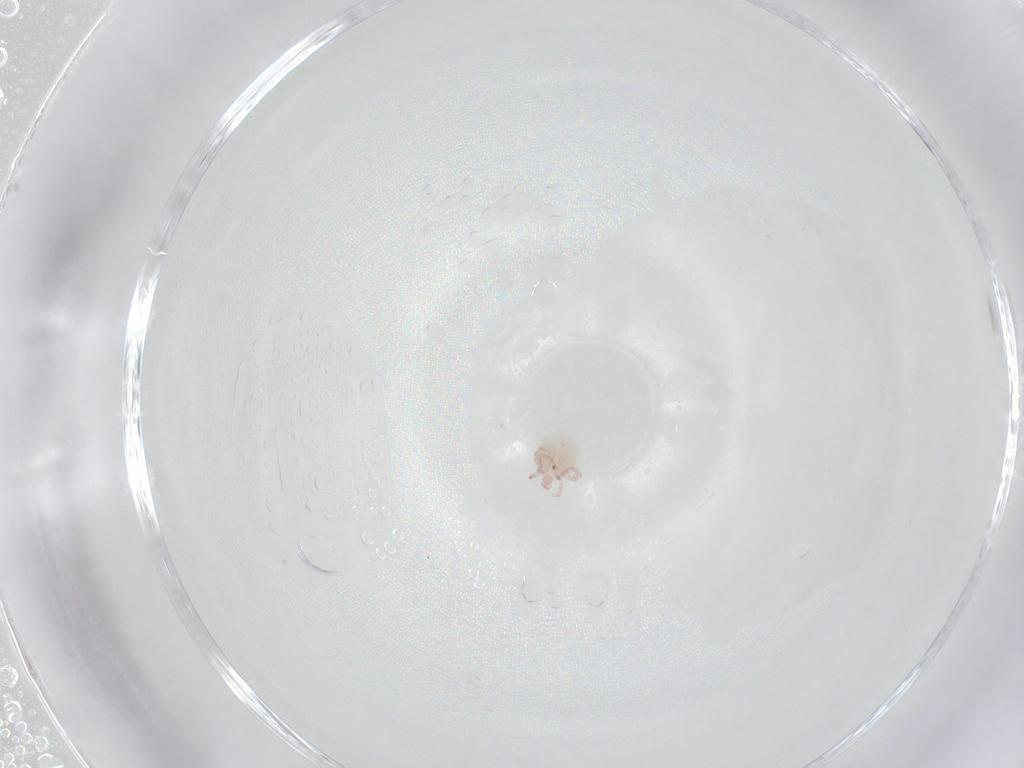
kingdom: Animalia
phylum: Arthropoda
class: Arachnida
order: Trombidiformes
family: Pionidae
